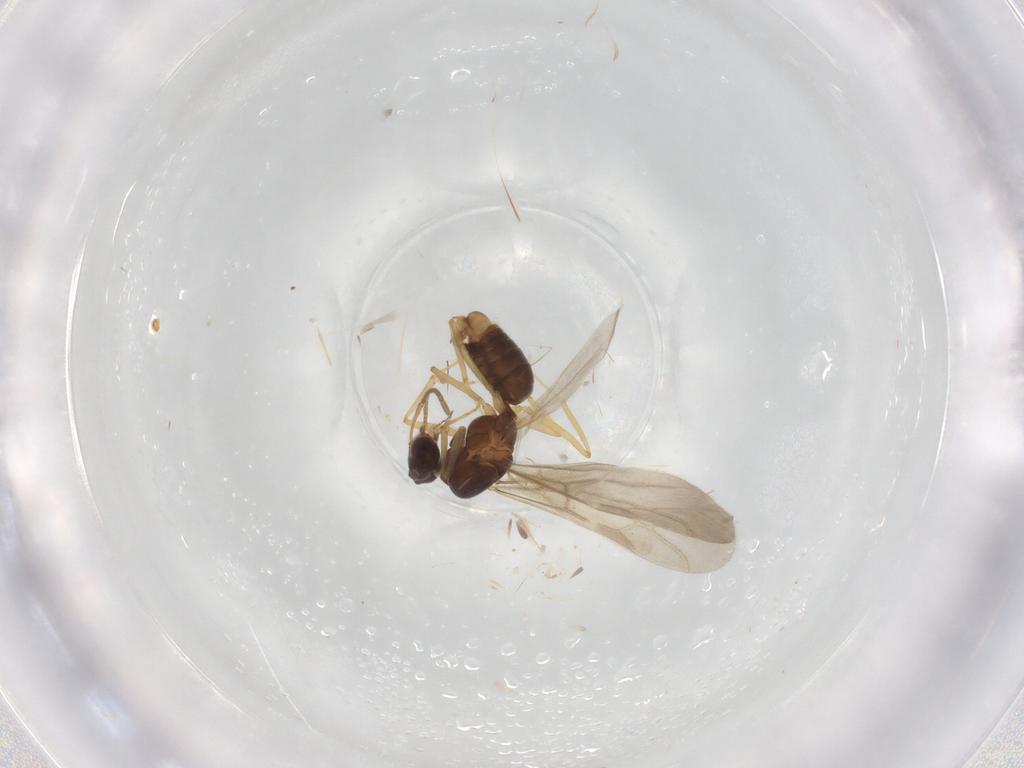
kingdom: Animalia
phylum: Arthropoda
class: Insecta
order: Hymenoptera
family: Formicidae
